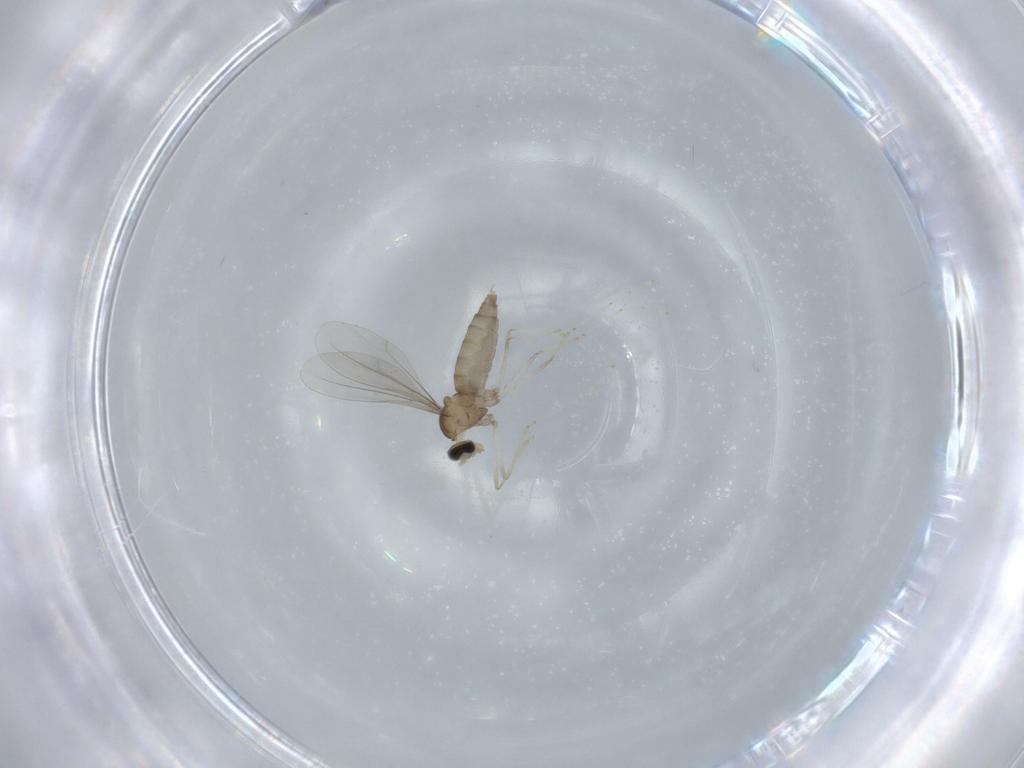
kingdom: Animalia
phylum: Arthropoda
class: Insecta
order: Diptera
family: Cecidomyiidae
